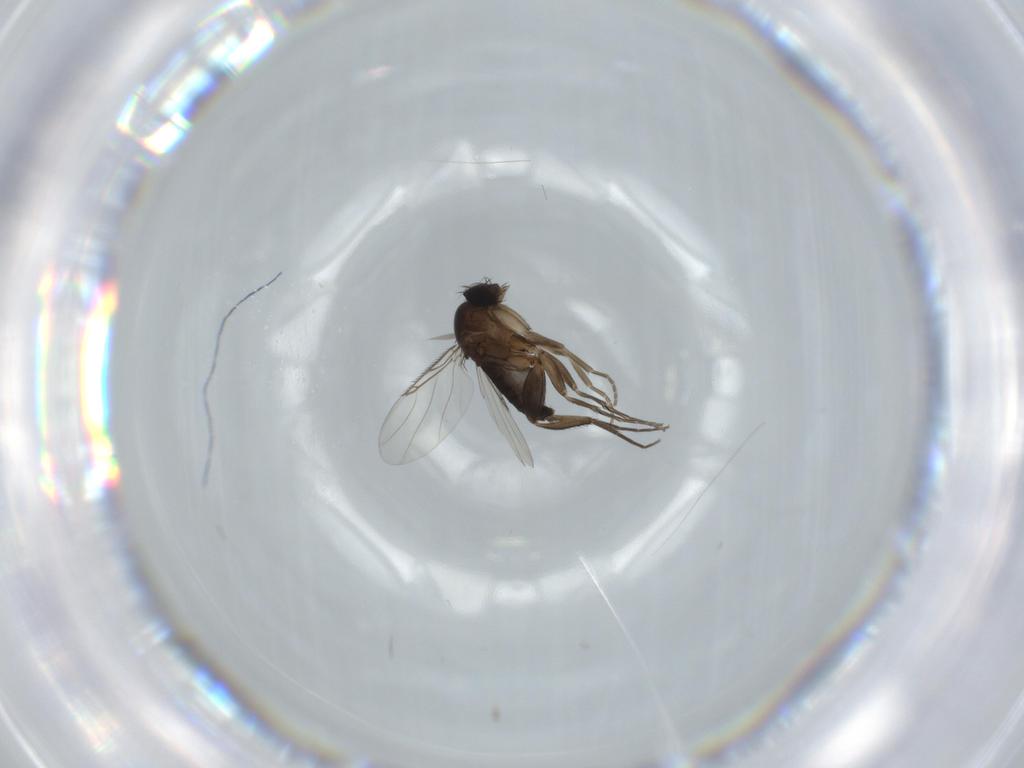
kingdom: Animalia
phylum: Arthropoda
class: Insecta
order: Diptera
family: Phoridae
